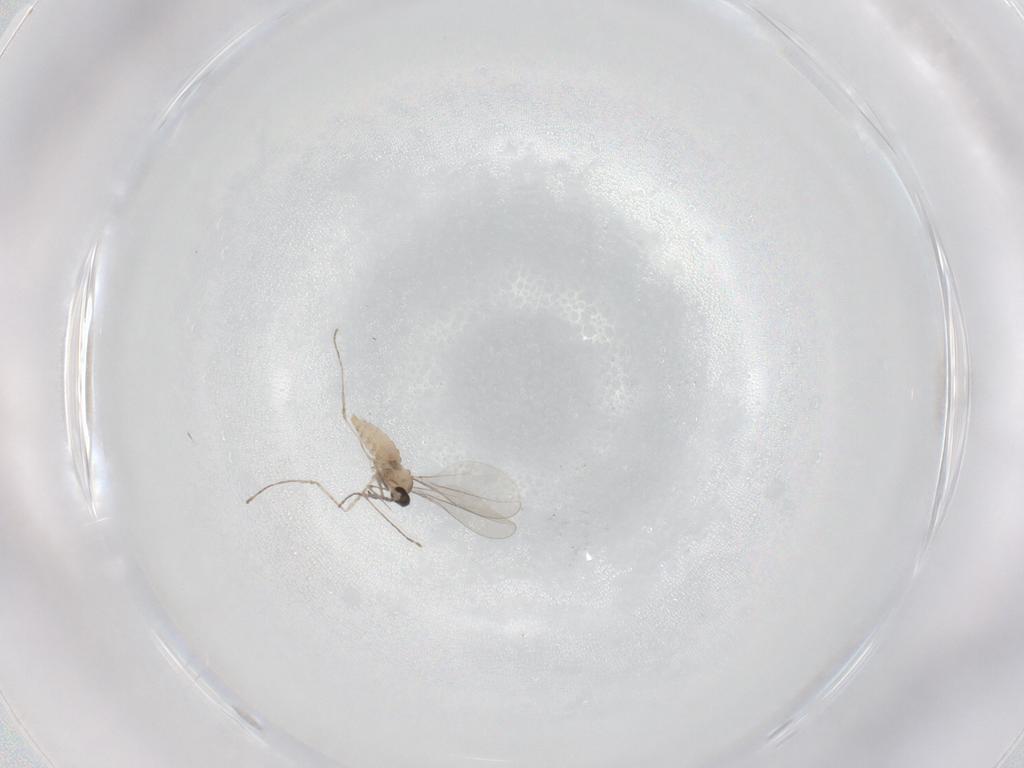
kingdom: Animalia
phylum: Arthropoda
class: Insecta
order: Diptera
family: Cecidomyiidae
